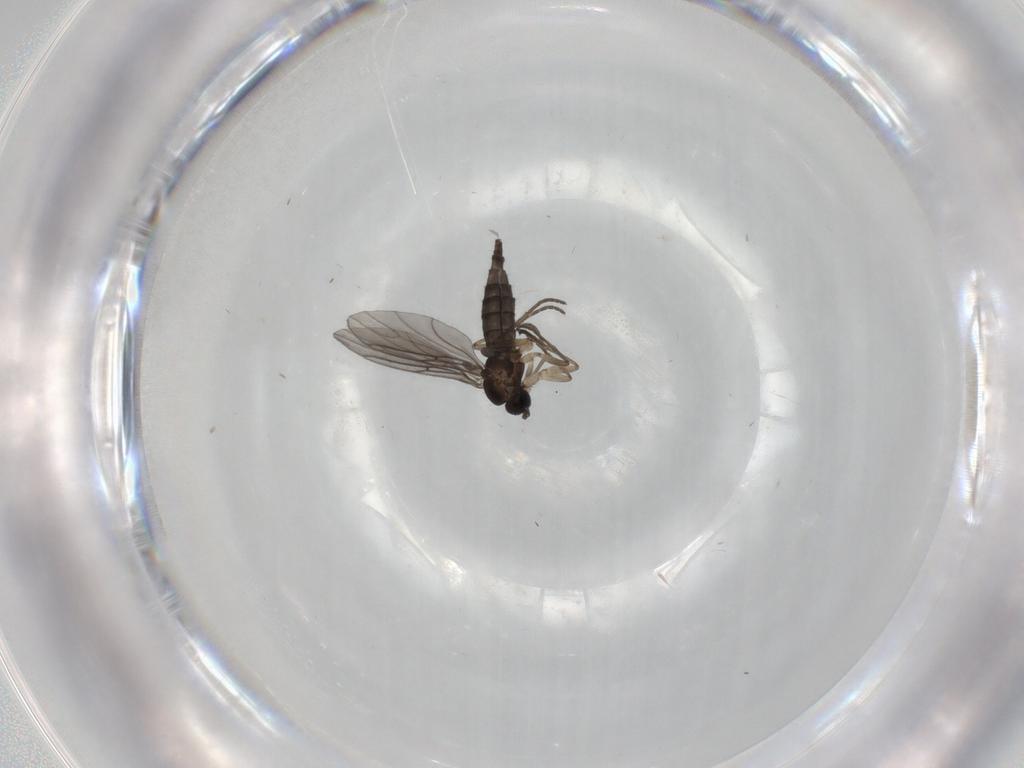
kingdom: Animalia
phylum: Arthropoda
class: Insecta
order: Diptera
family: Sciaridae
